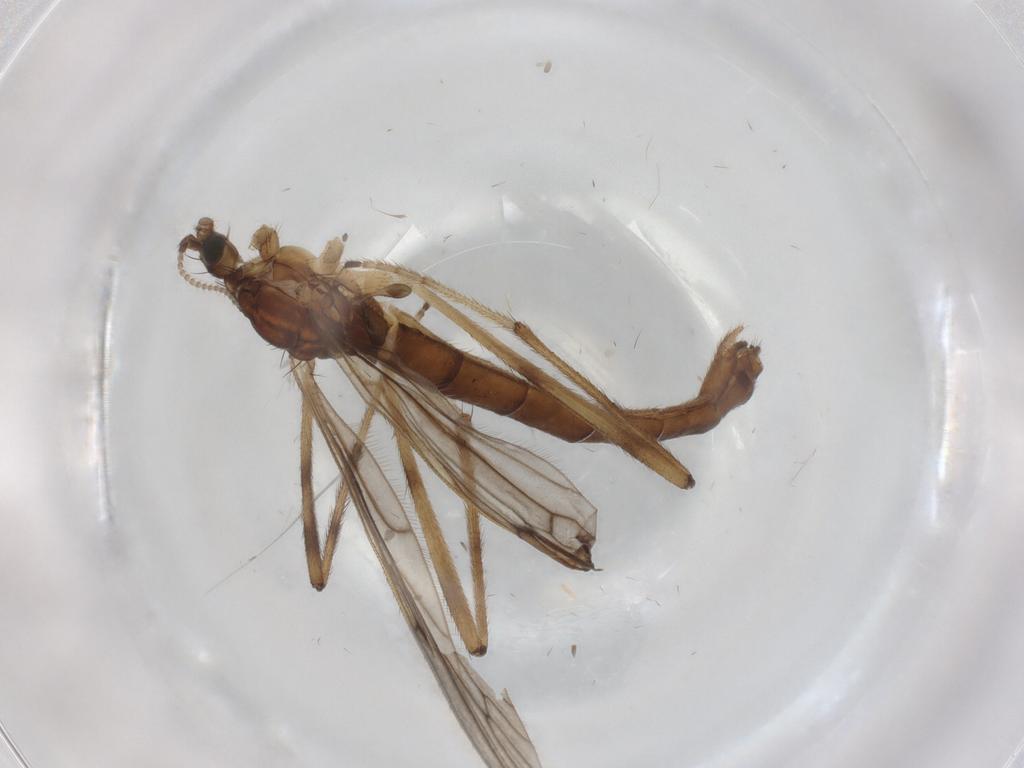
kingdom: Animalia
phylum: Arthropoda
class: Insecta
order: Diptera
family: Limoniidae
